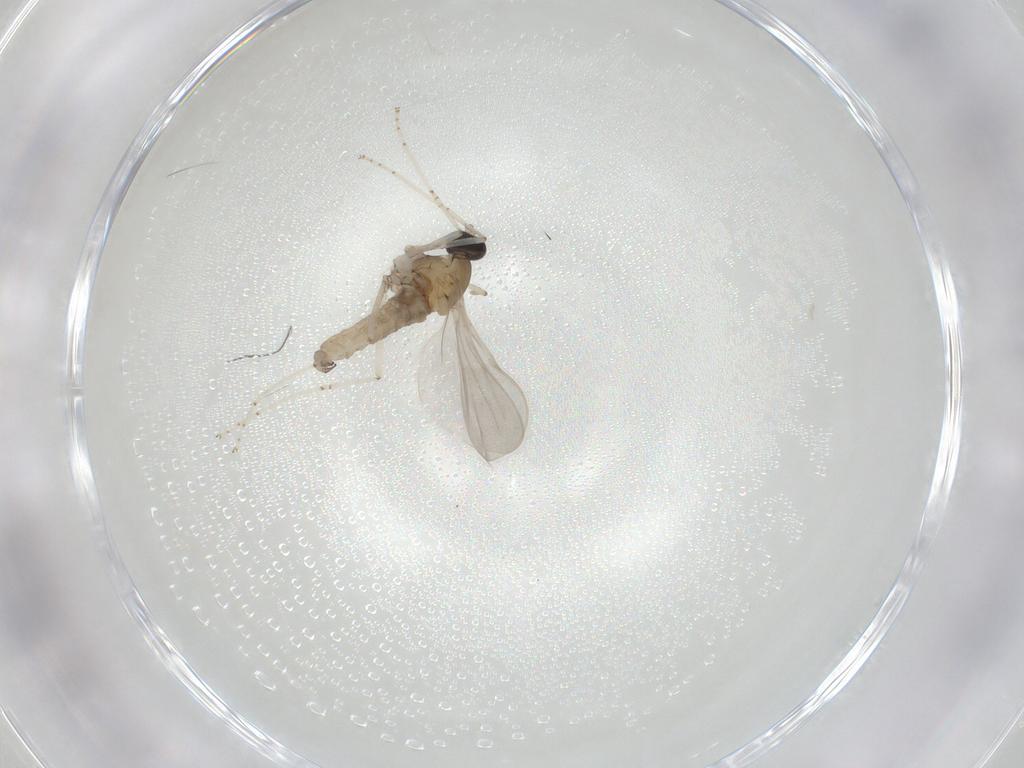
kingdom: Animalia
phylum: Arthropoda
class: Insecta
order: Diptera
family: Cecidomyiidae
